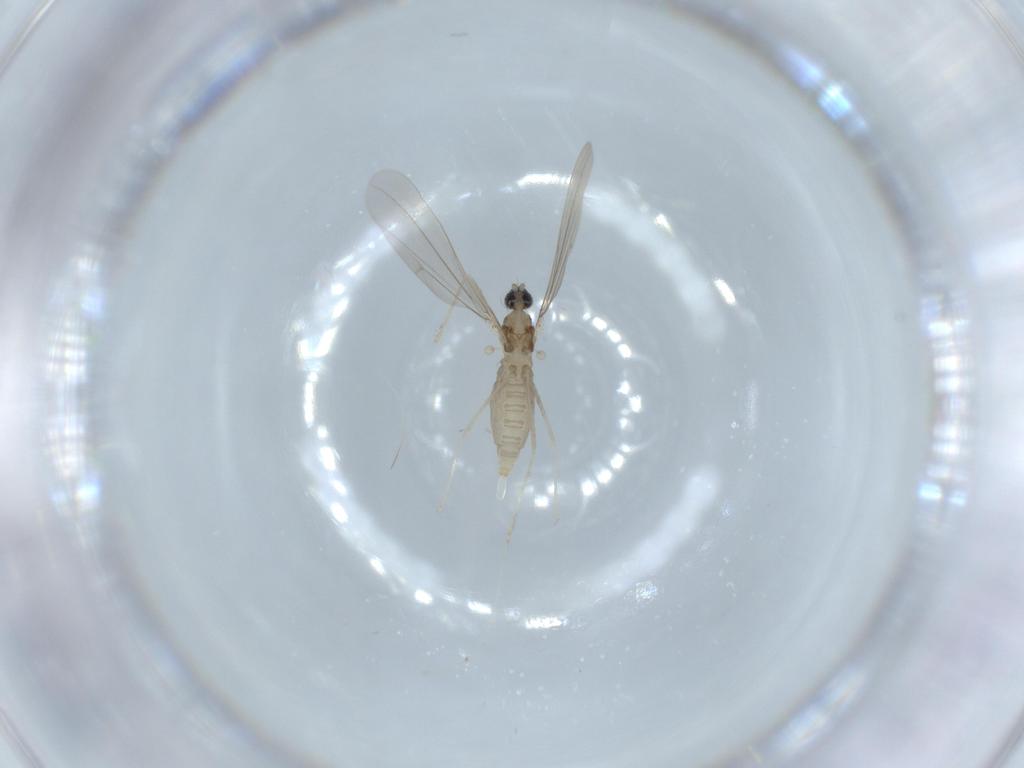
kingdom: Animalia
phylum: Arthropoda
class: Insecta
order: Diptera
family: Cecidomyiidae
